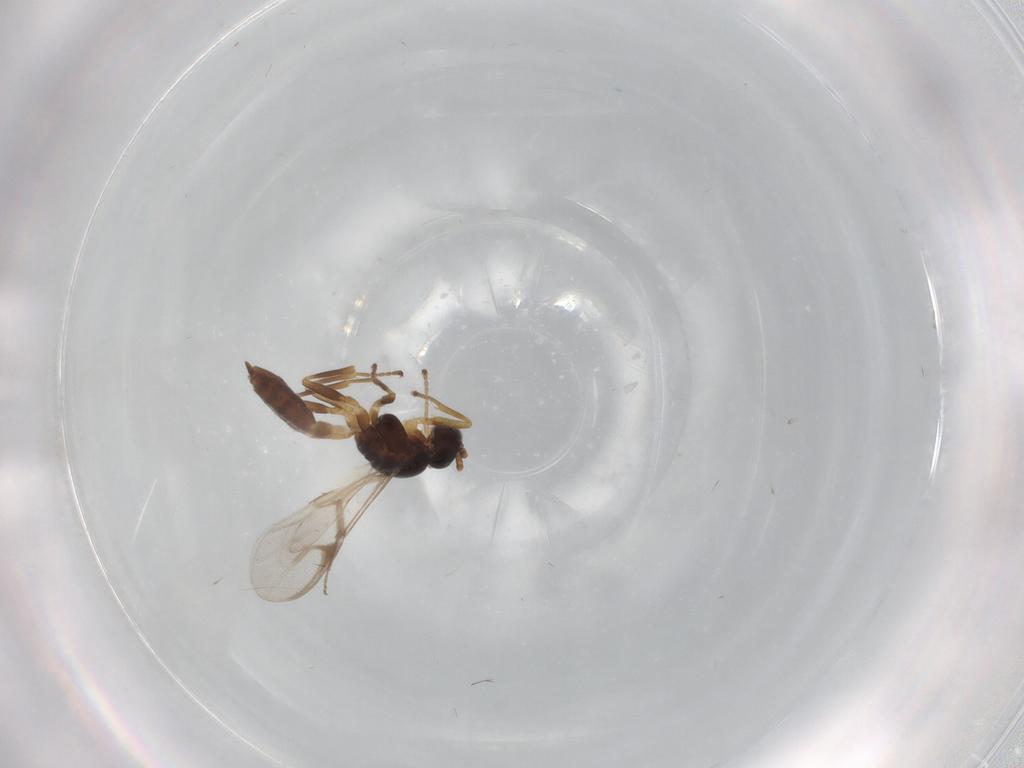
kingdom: Animalia
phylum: Arthropoda
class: Insecta
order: Hymenoptera
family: Braconidae
